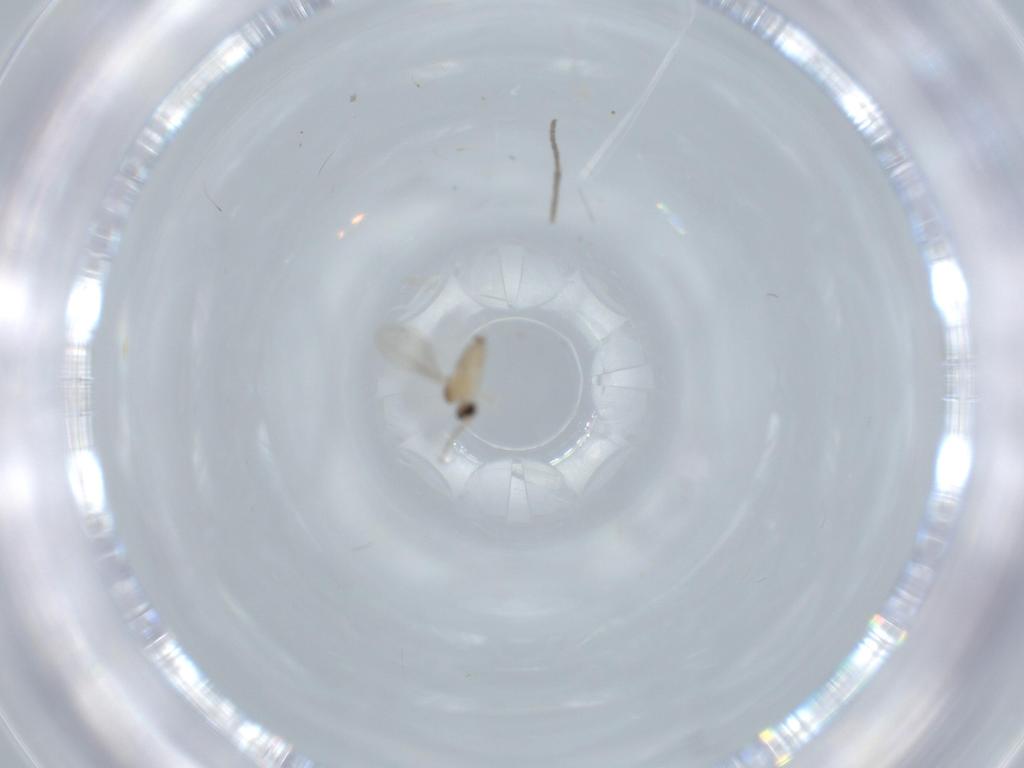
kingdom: Animalia
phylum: Arthropoda
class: Insecta
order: Diptera
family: Cecidomyiidae
